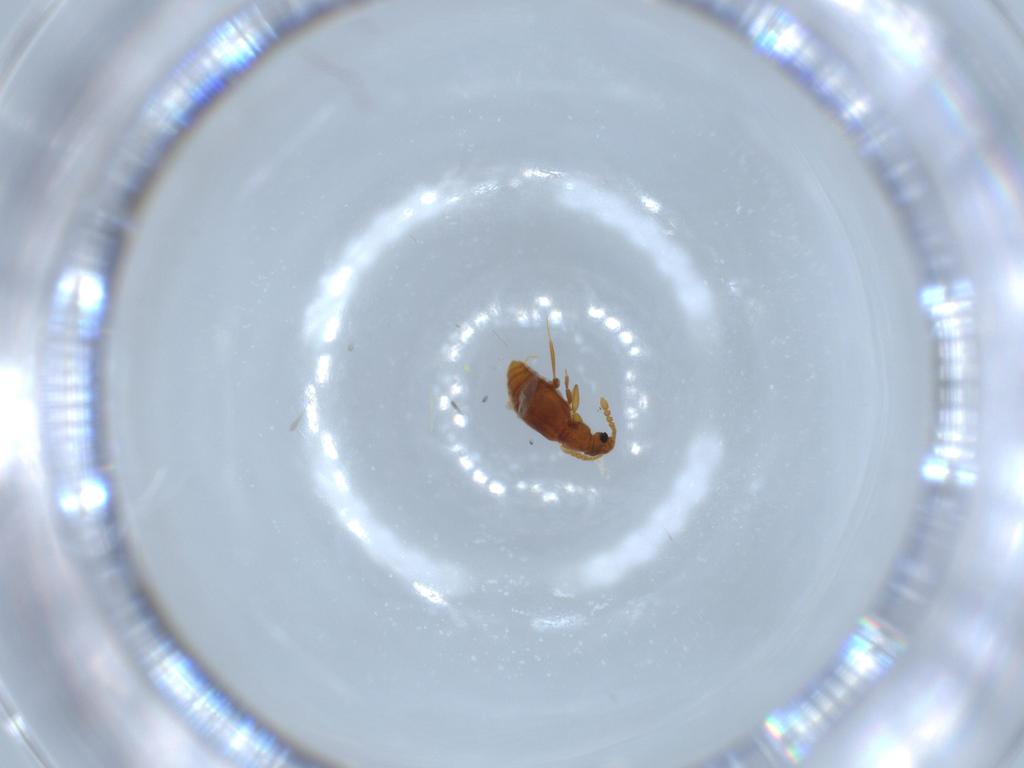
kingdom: Animalia
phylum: Arthropoda
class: Insecta
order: Coleoptera
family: Staphylinidae
